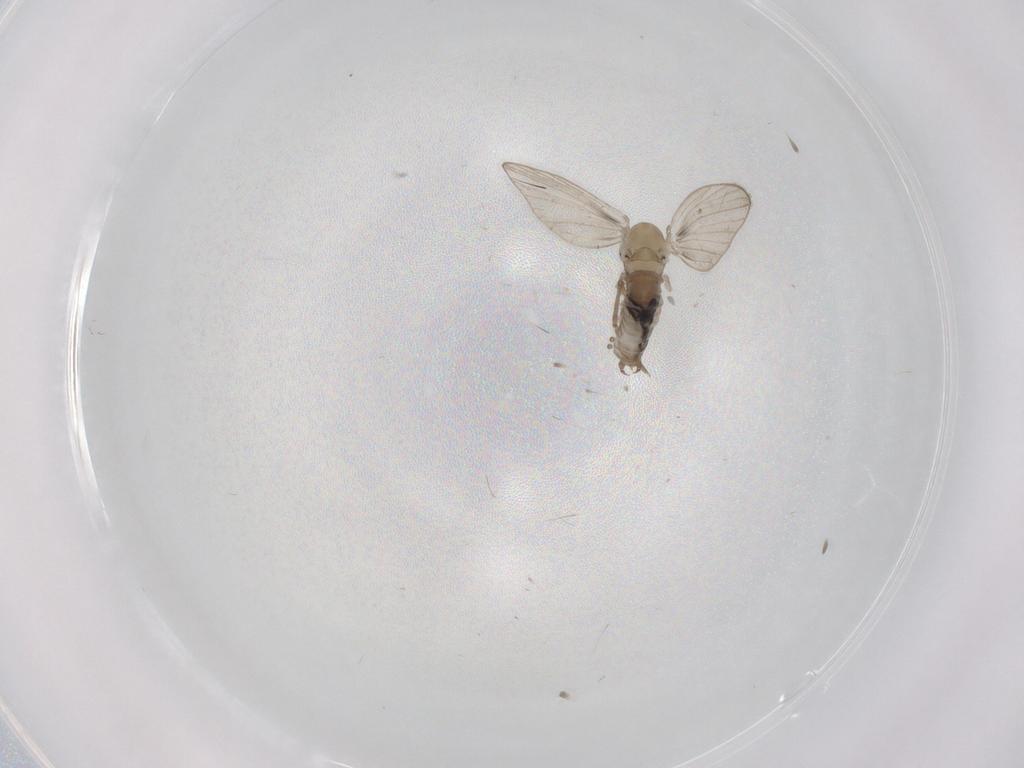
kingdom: Animalia
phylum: Arthropoda
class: Insecta
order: Diptera
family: Psychodidae
